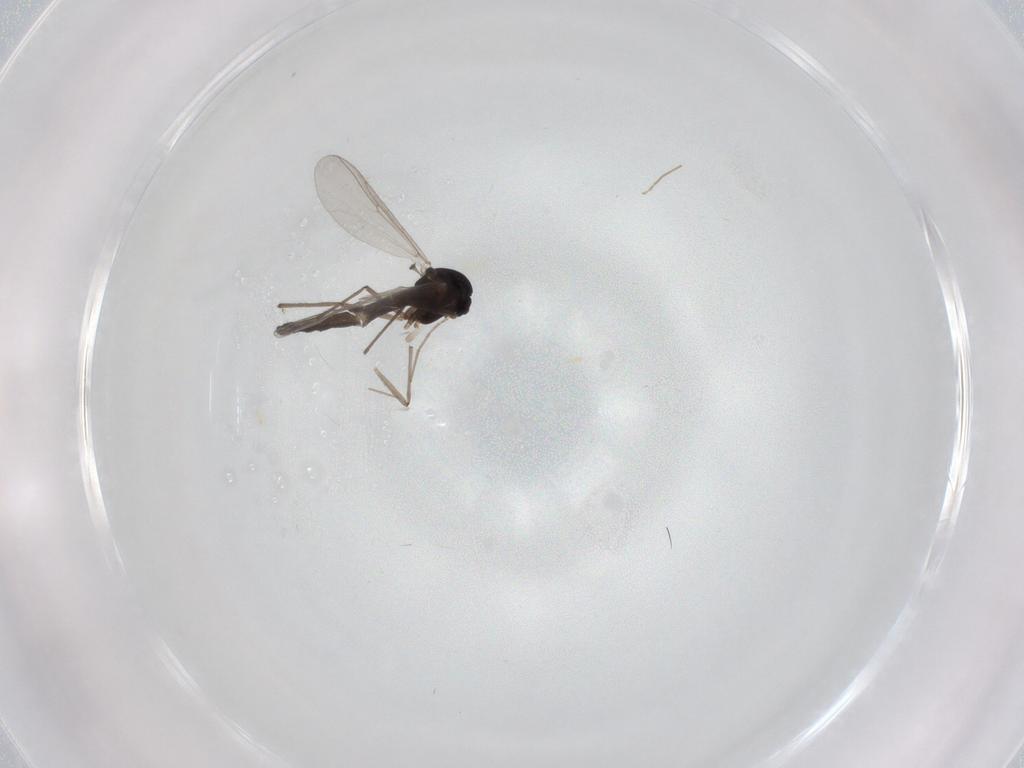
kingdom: Animalia
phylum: Arthropoda
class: Insecta
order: Diptera
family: Chironomidae
